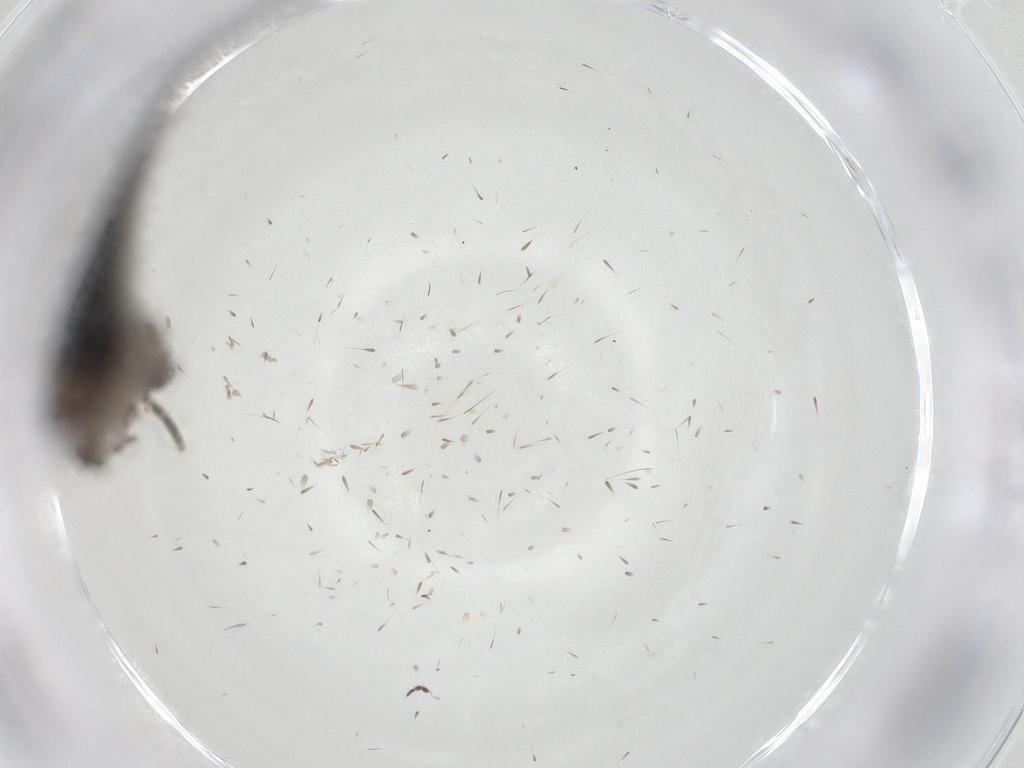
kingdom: Animalia
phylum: Arthropoda
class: Insecta
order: Lepidoptera
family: Tortricidae
